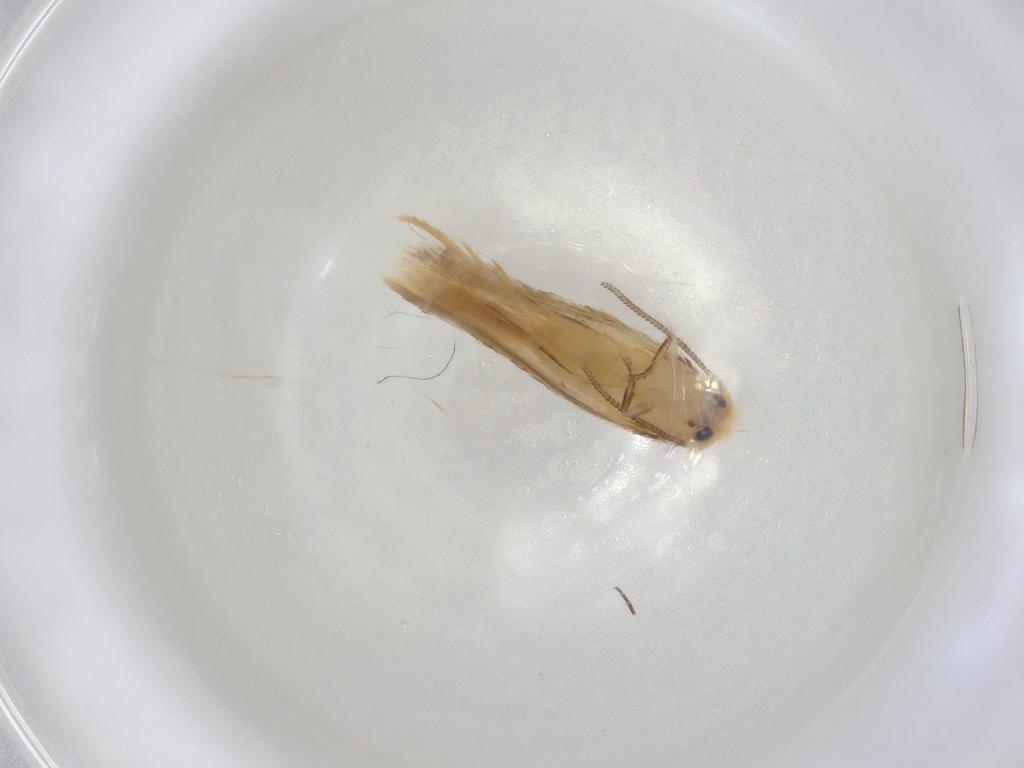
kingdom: Animalia
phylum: Arthropoda
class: Insecta
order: Lepidoptera
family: Nepticulidae
